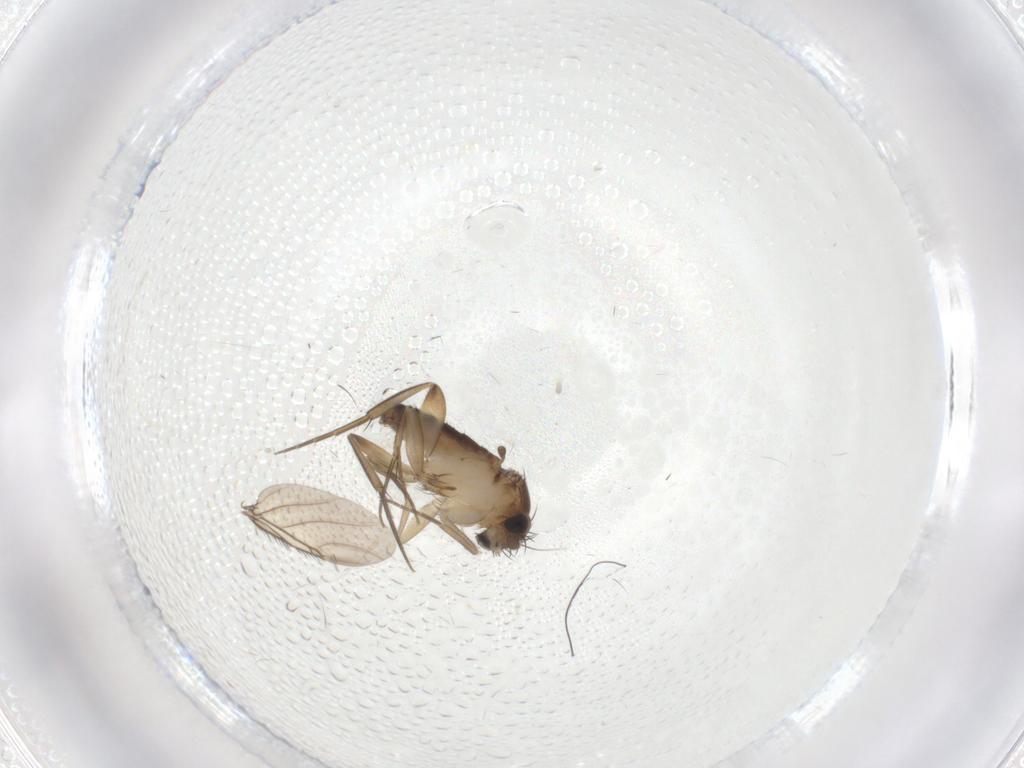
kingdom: Animalia
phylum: Arthropoda
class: Insecta
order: Diptera
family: Phoridae
